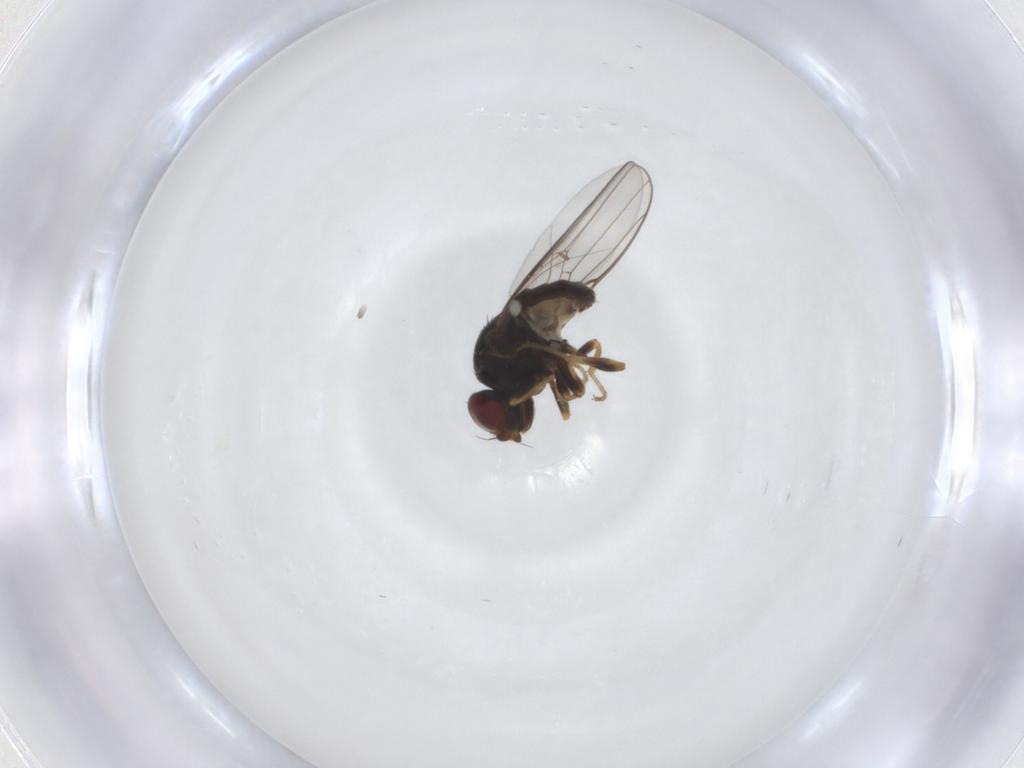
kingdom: Animalia
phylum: Arthropoda
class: Insecta
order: Diptera
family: Chloropidae
